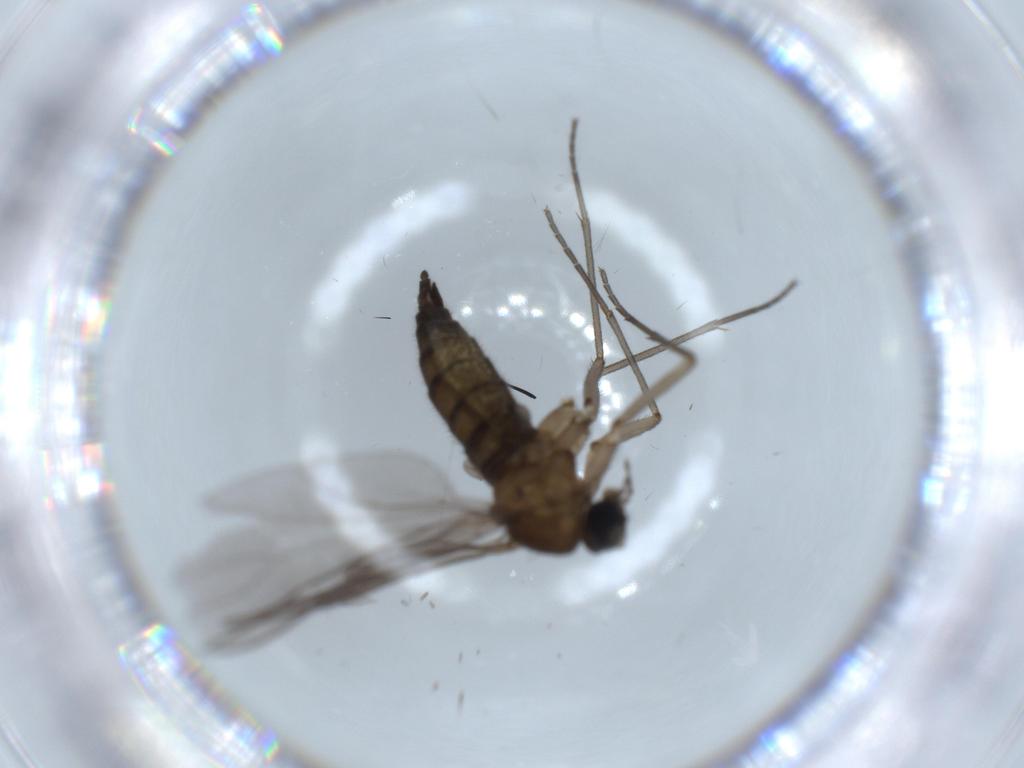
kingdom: Animalia
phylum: Arthropoda
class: Insecta
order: Diptera
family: Sciaridae
